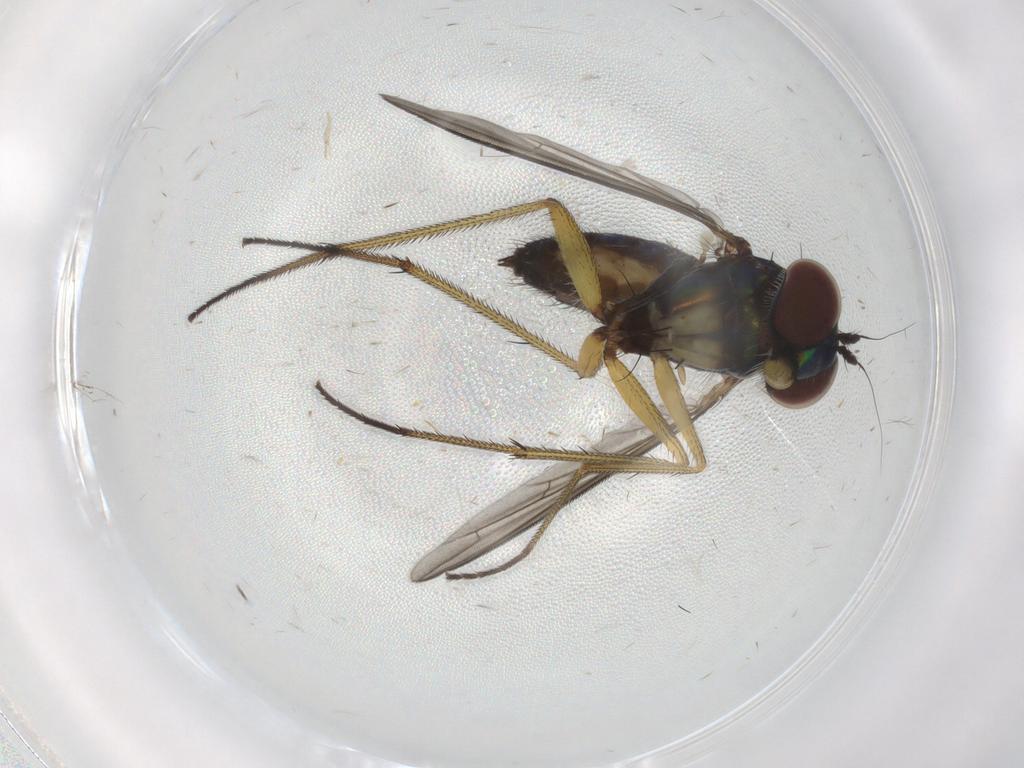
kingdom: Animalia
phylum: Arthropoda
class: Insecta
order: Diptera
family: Dolichopodidae
